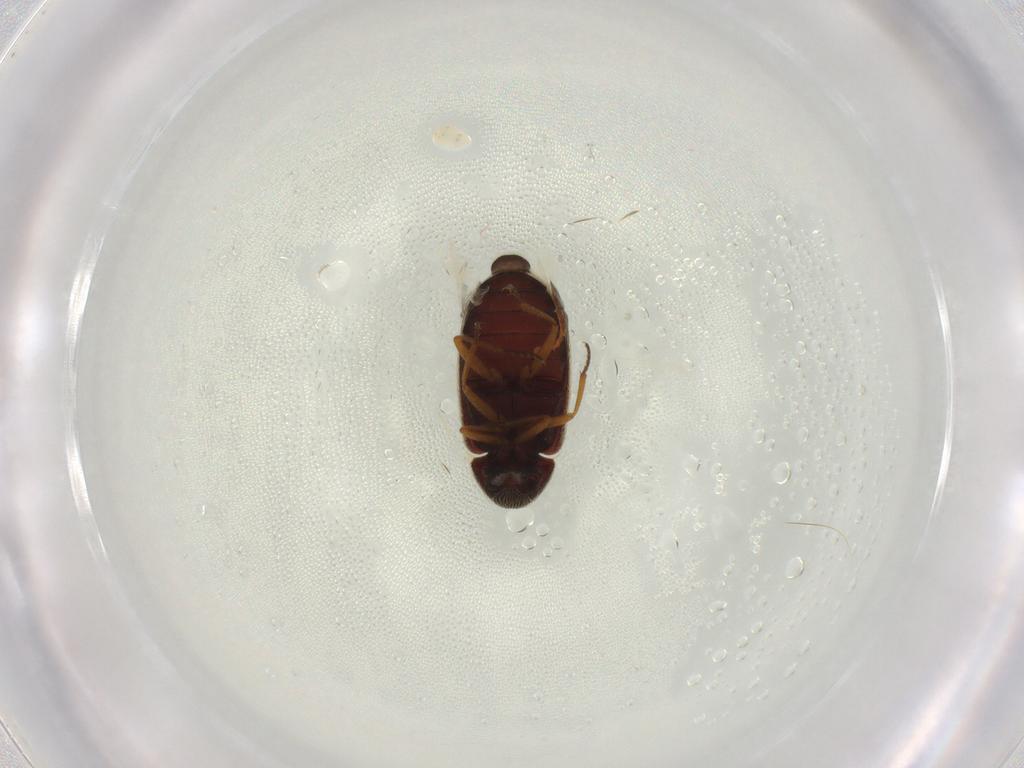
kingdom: Animalia
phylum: Arthropoda
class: Insecta
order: Coleoptera
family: Rhadalidae
